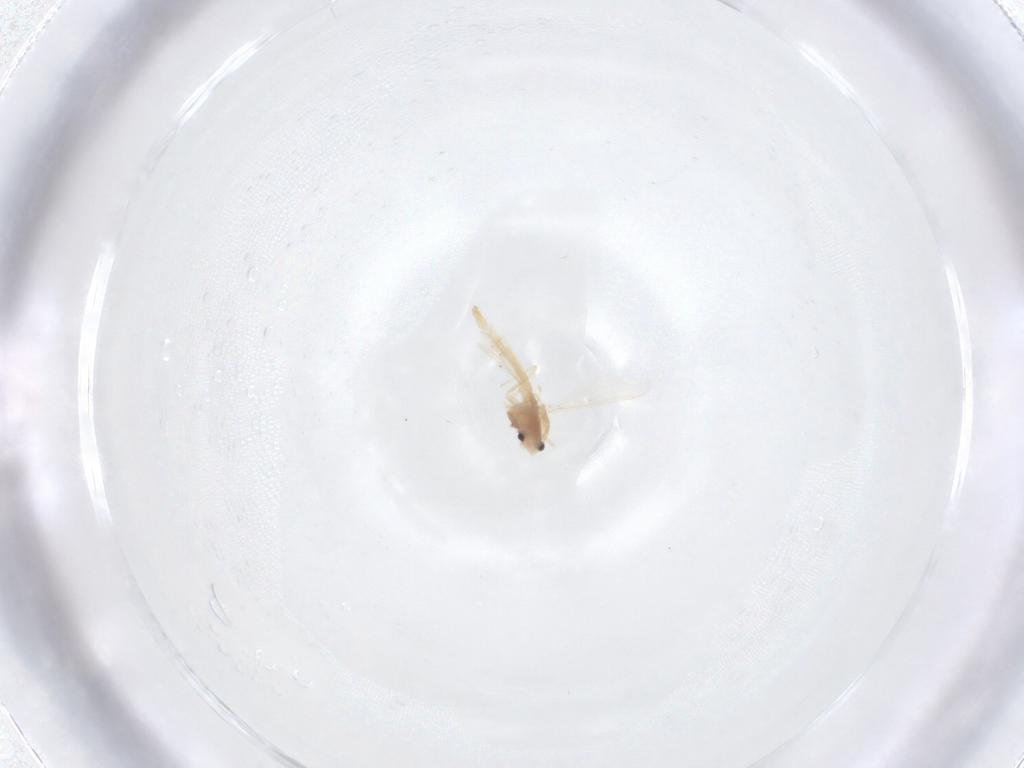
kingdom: Animalia
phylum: Arthropoda
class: Insecta
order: Diptera
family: Chironomidae
